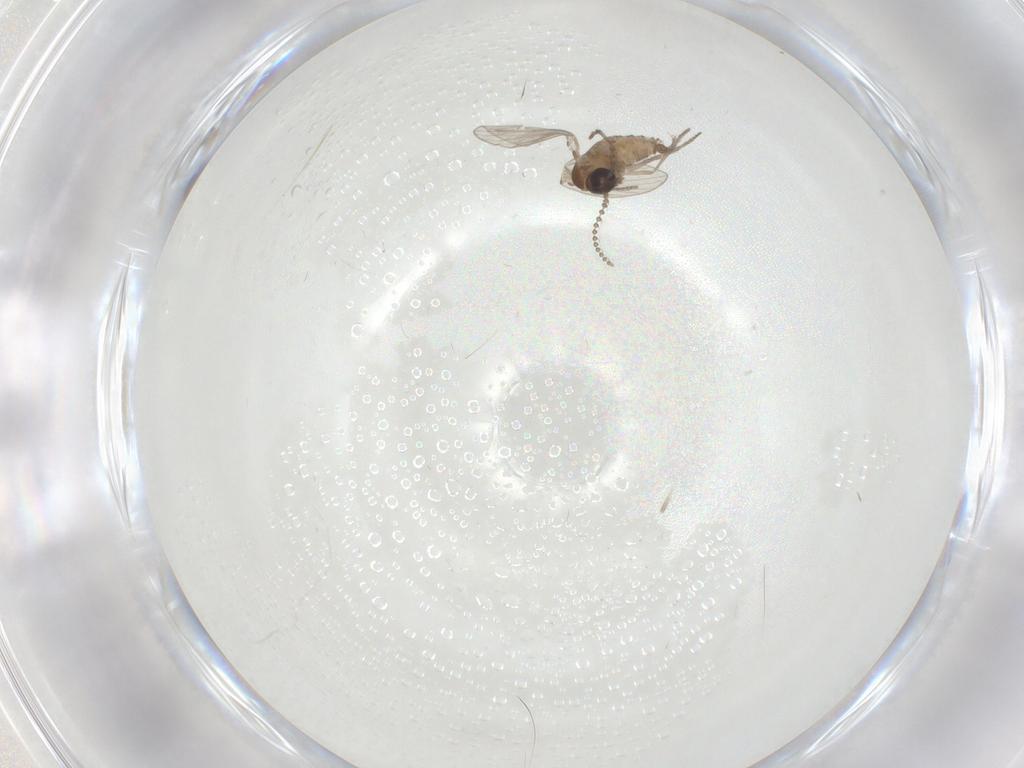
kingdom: Animalia
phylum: Arthropoda
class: Insecta
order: Diptera
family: Psychodidae
